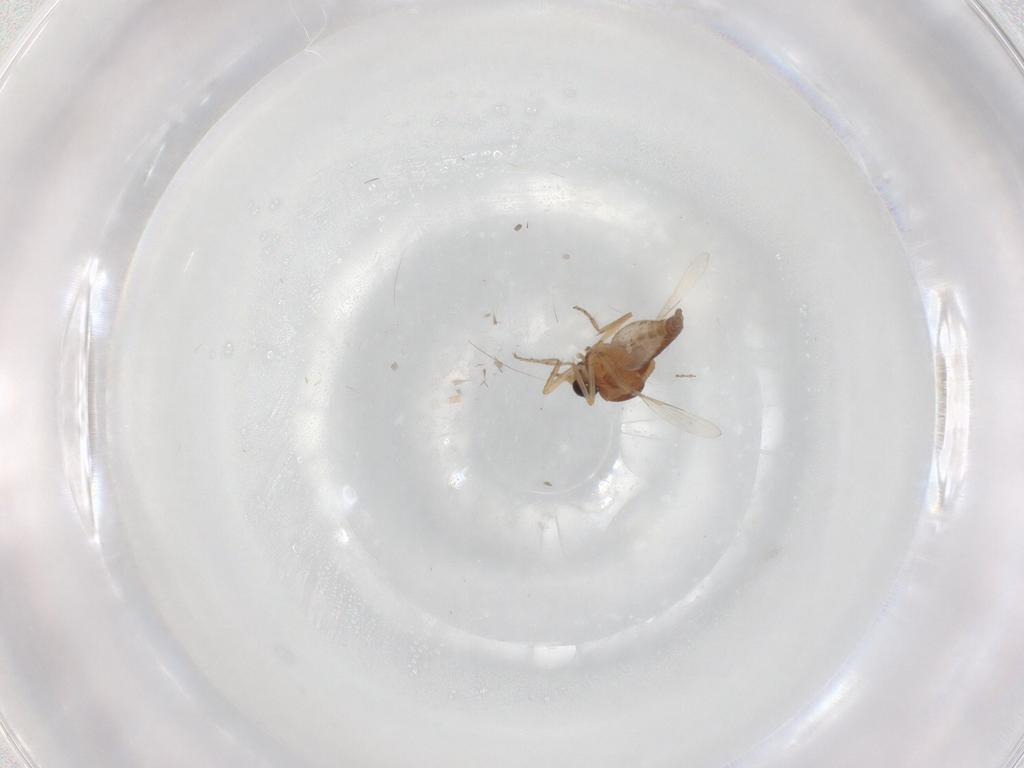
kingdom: Animalia
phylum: Arthropoda
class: Insecta
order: Diptera
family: Ceratopogonidae
